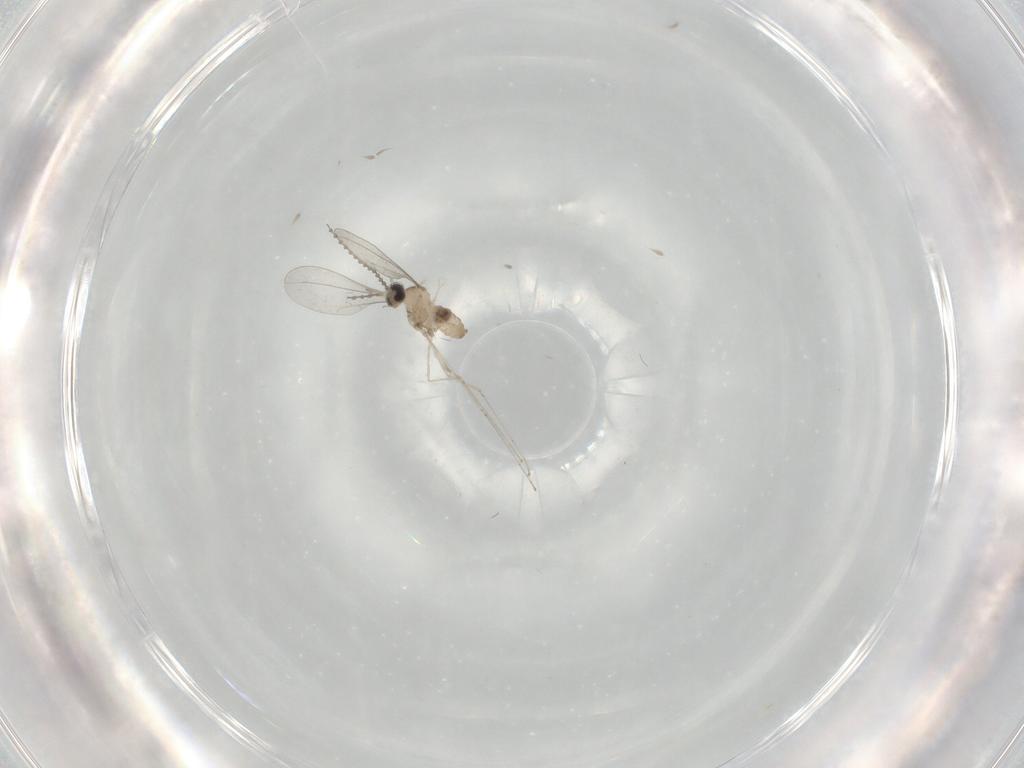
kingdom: Animalia
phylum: Arthropoda
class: Insecta
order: Diptera
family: Cecidomyiidae
